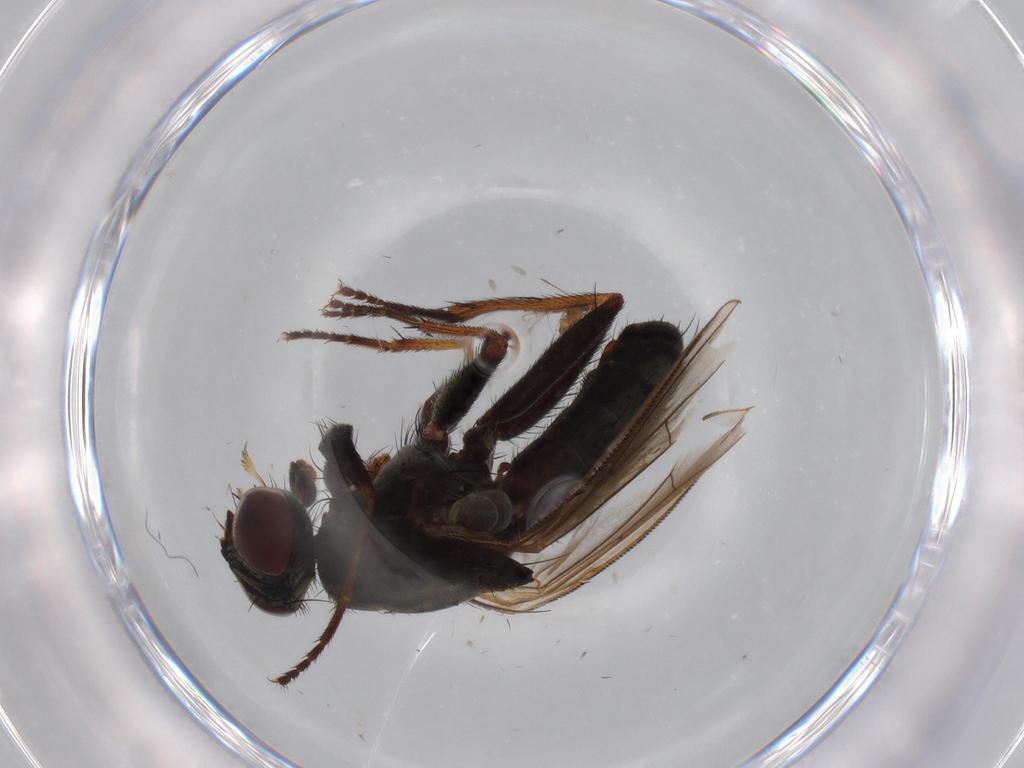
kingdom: Animalia
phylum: Arthropoda
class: Insecta
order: Diptera
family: Muscidae
